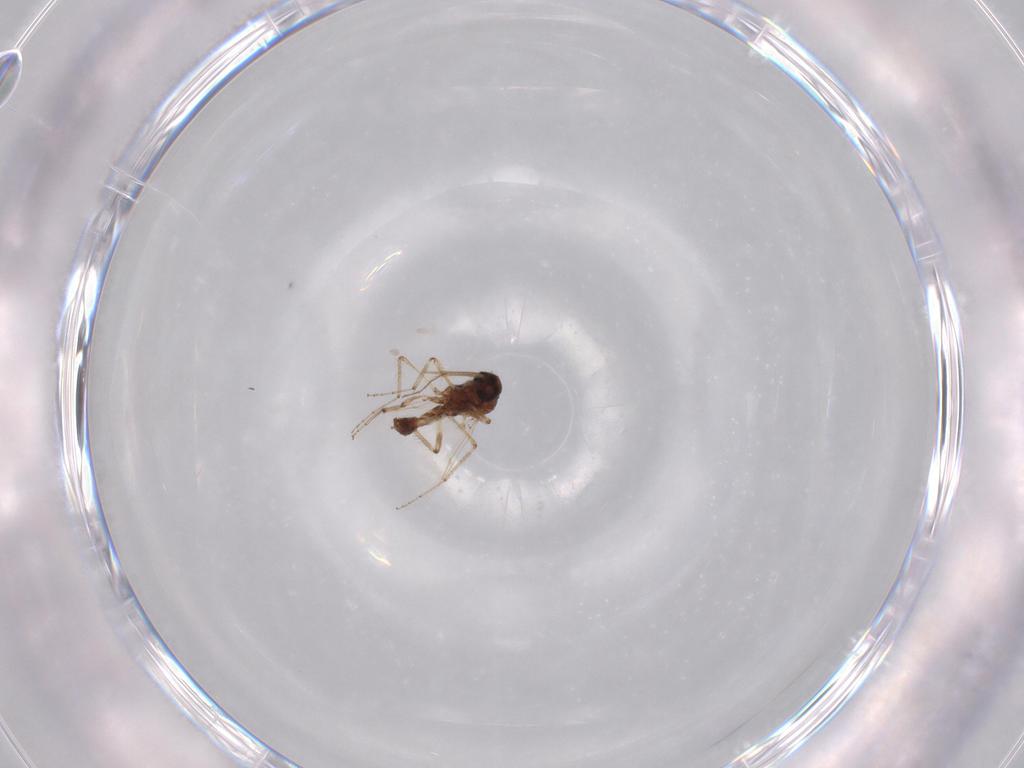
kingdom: Animalia
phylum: Arthropoda
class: Insecta
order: Diptera
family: Ceratopogonidae
